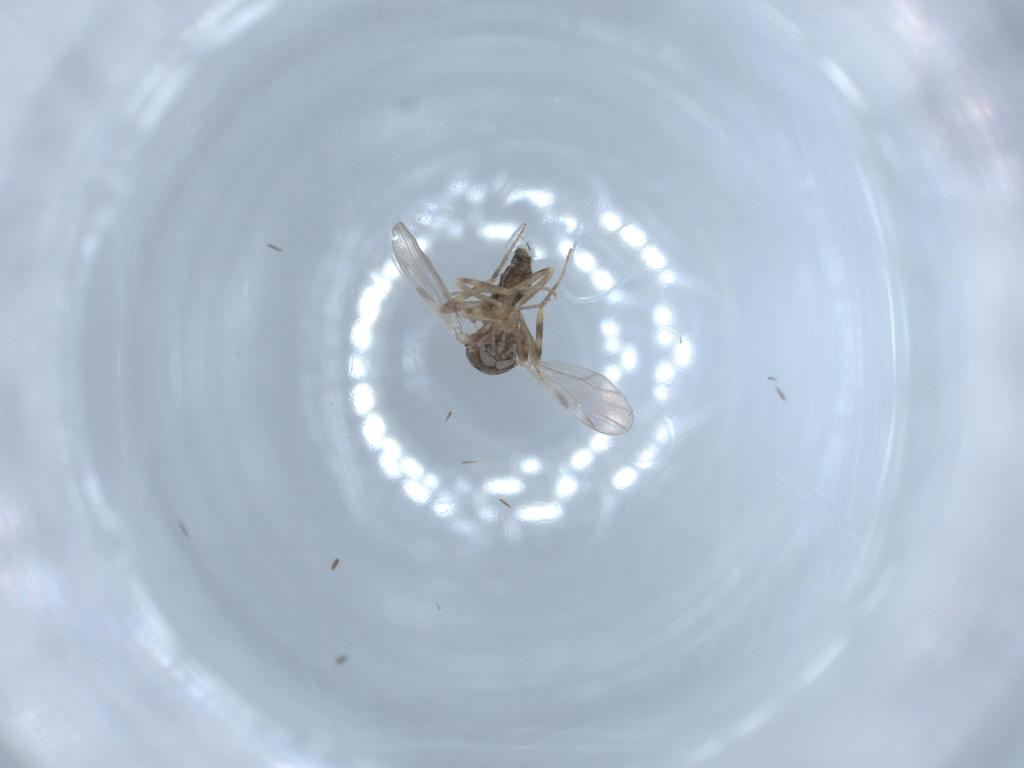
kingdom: Animalia
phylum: Arthropoda
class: Insecta
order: Diptera
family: Ceratopogonidae
